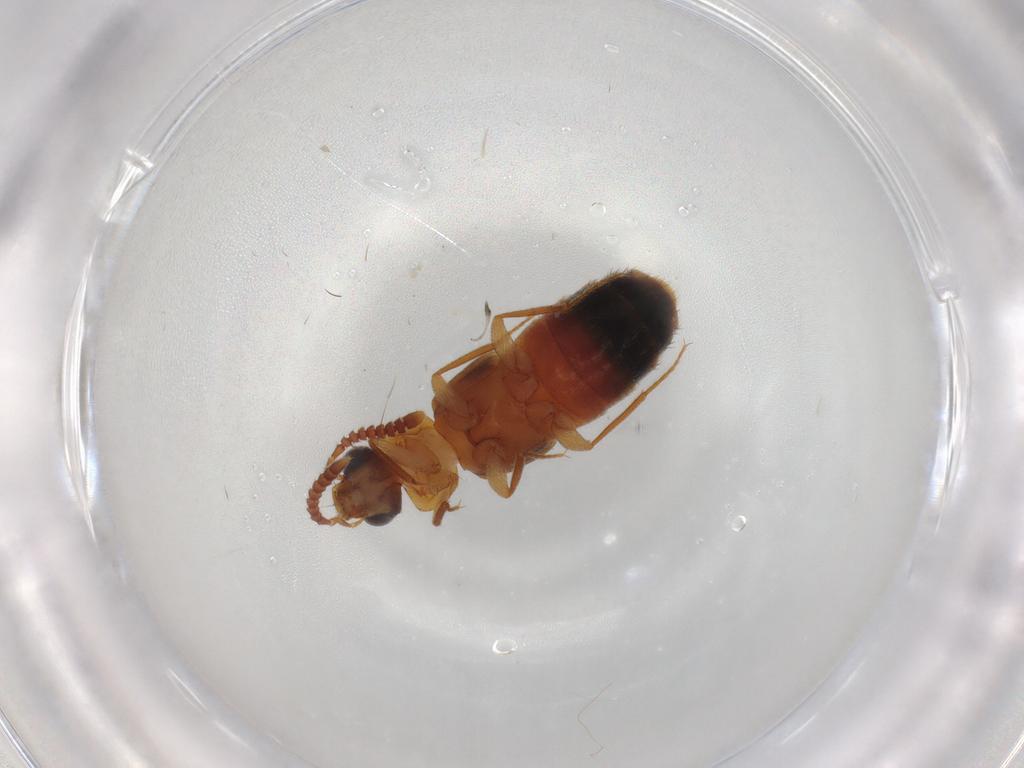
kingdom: Animalia
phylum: Arthropoda
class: Insecta
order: Coleoptera
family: Staphylinidae
